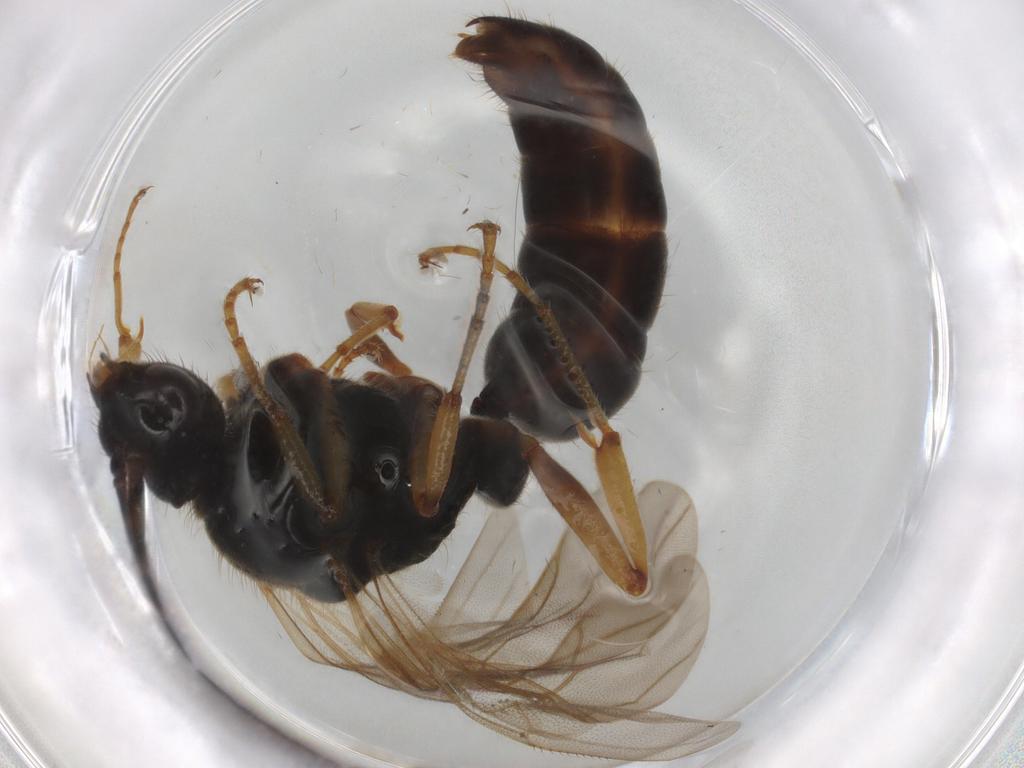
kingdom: Animalia
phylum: Arthropoda
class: Insecta
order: Hymenoptera
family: Formicidae
